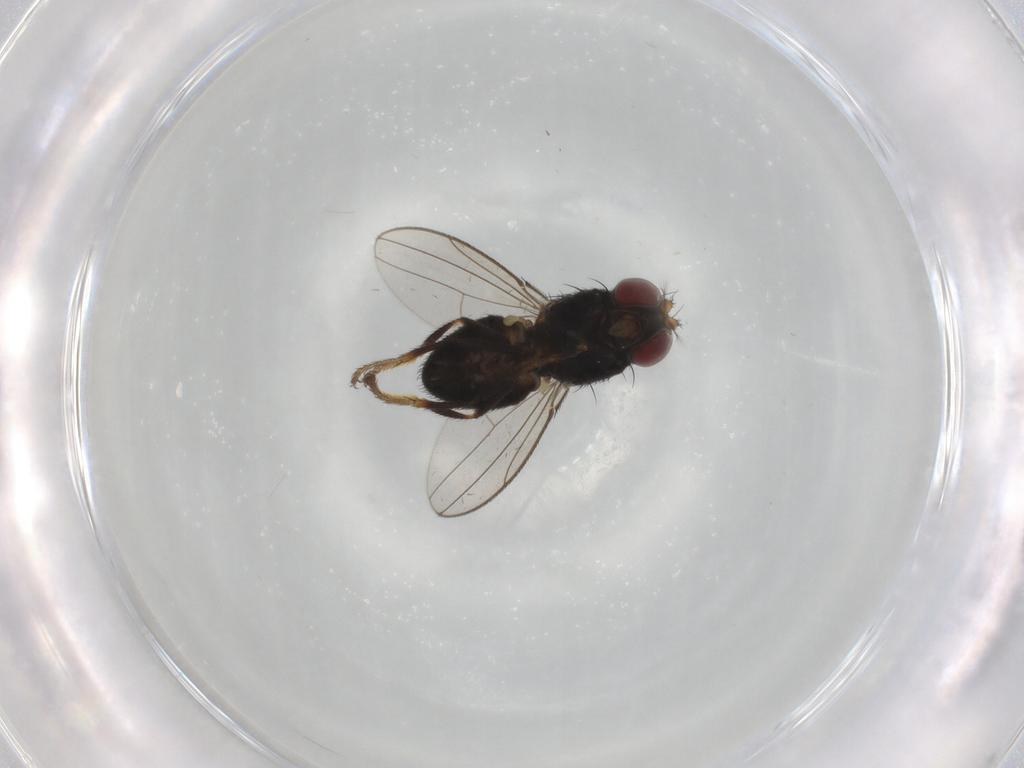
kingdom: Animalia
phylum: Arthropoda
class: Insecta
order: Diptera
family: Ephydridae
